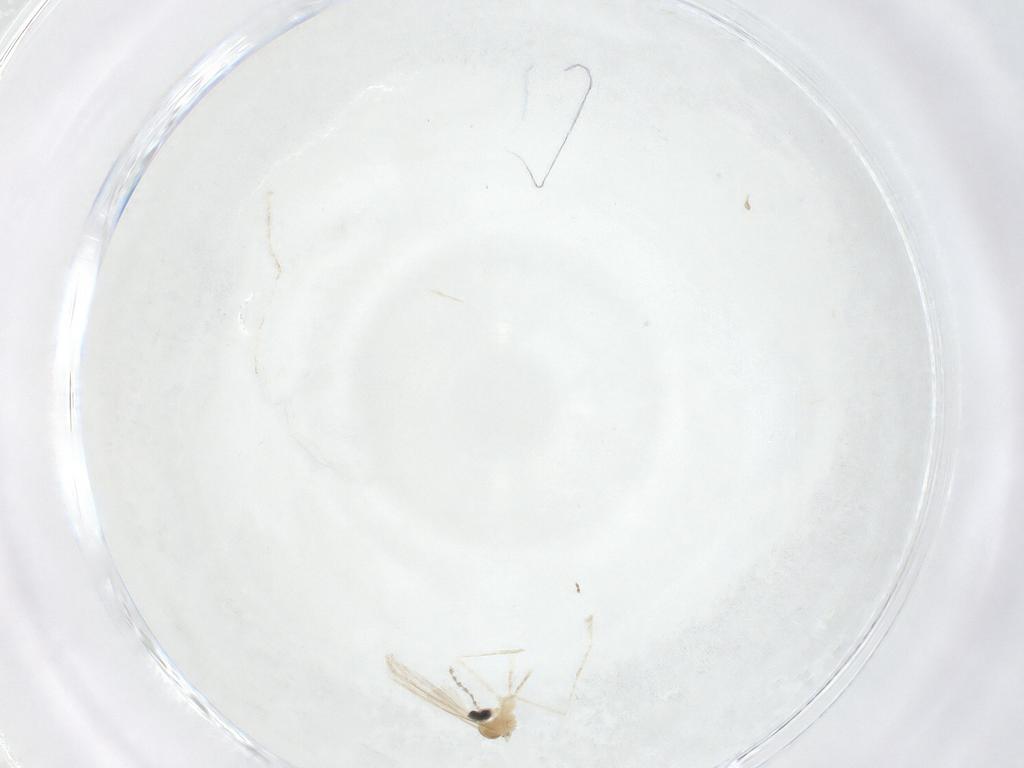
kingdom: Animalia
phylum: Arthropoda
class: Insecta
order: Diptera
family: Cecidomyiidae
